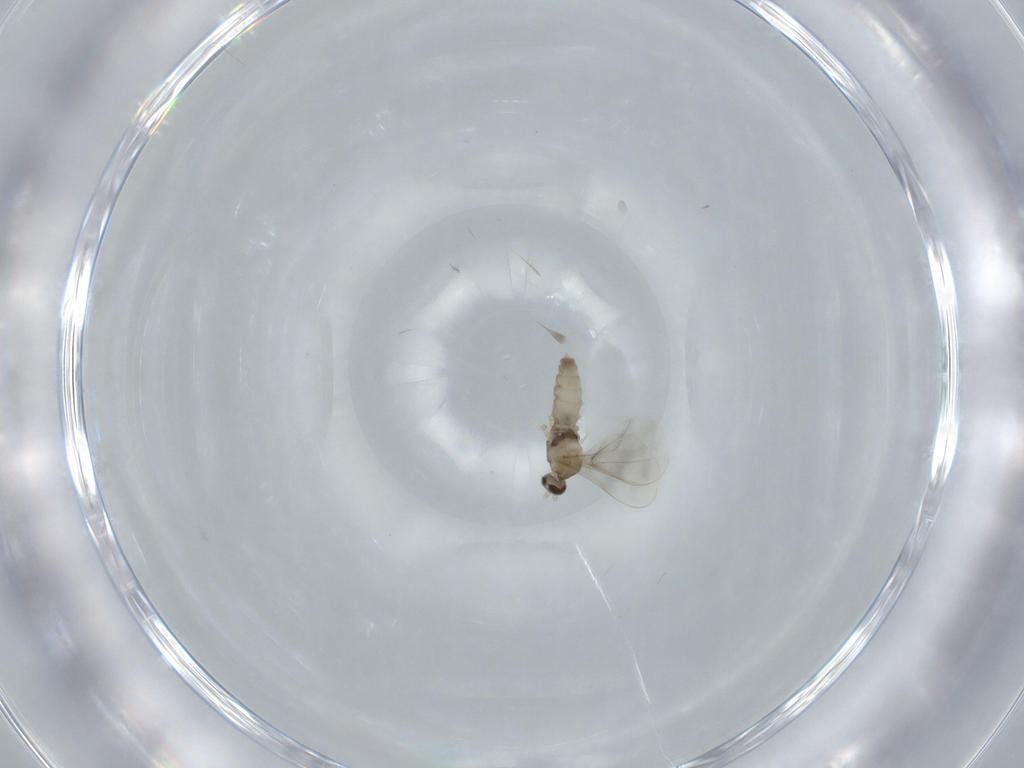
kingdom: Animalia
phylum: Arthropoda
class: Insecta
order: Diptera
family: Cecidomyiidae
